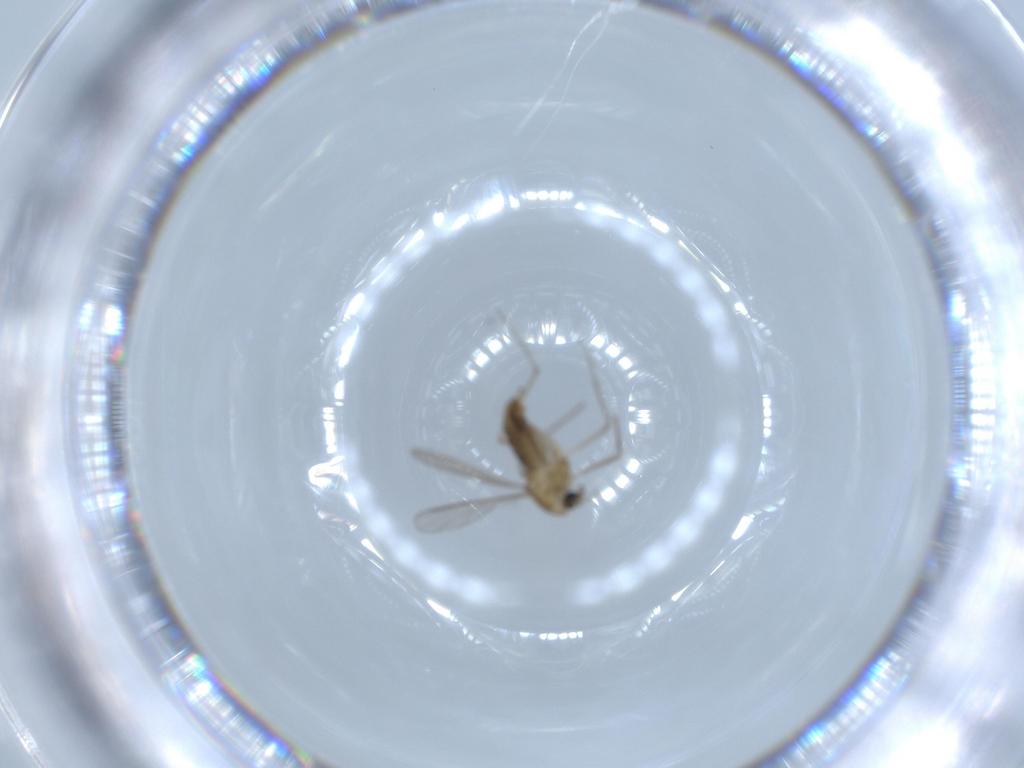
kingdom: Animalia
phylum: Arthropoda
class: Insecta
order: Diptera
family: Chironomidae
